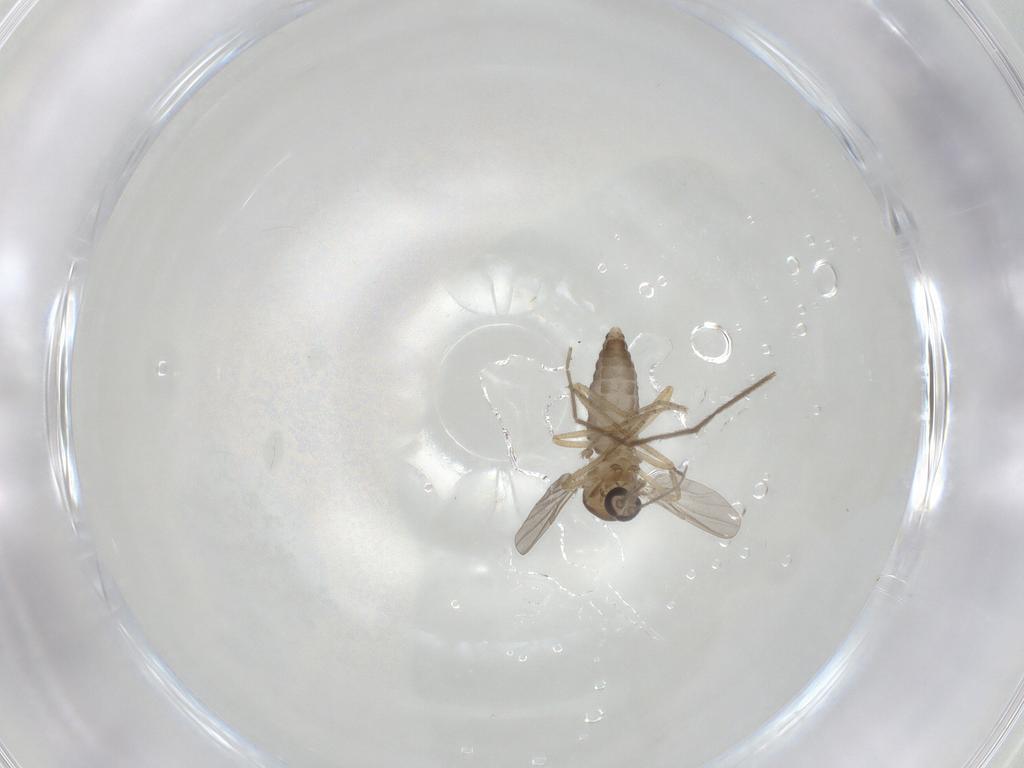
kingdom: Animalia
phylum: Arthropoda
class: Insecta
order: Diptera
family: Ceratopogonidae
